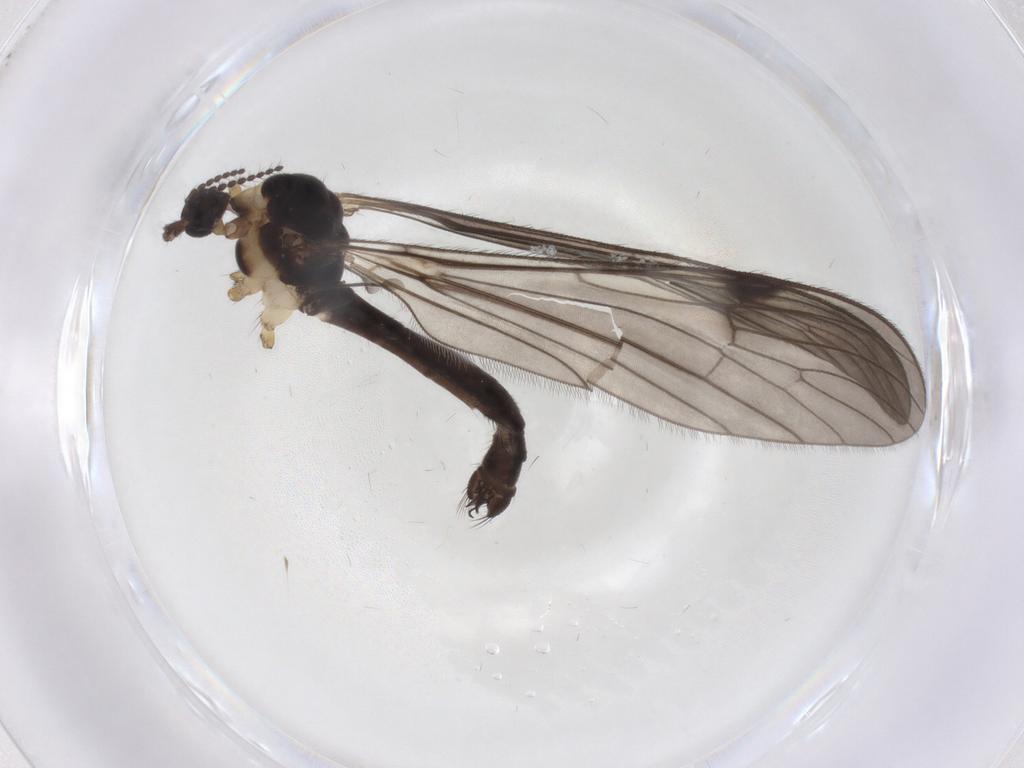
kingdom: Animalia
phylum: Arthropoda
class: Insecta
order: Diptera
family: Limoniidae
